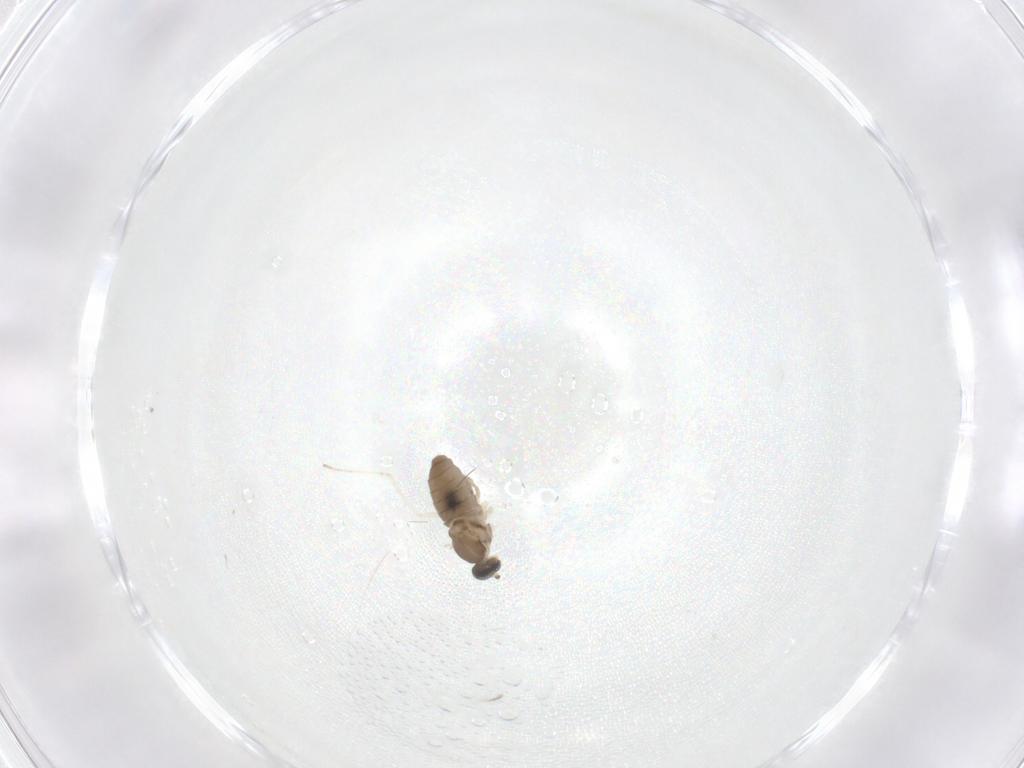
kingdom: Animalia
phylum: Arthropoda
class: Insecta
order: Diptera
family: Cecidomyiidae
